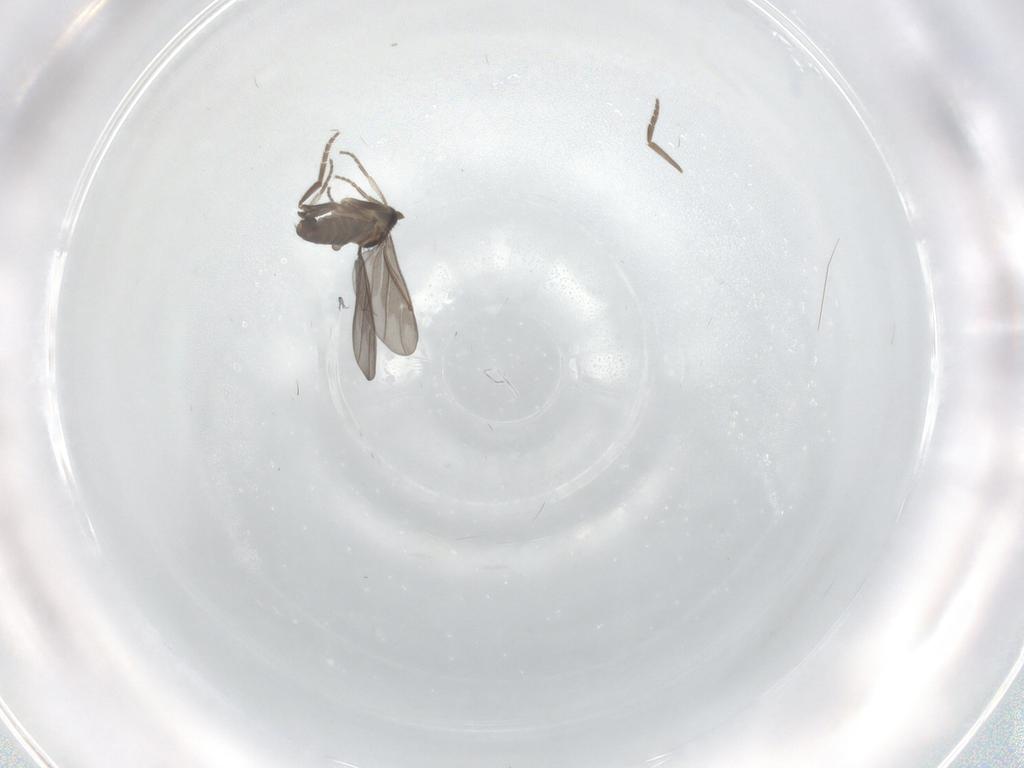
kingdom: Animalia
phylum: Arthropoda
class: Insecta
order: Diptera
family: Phoridae
